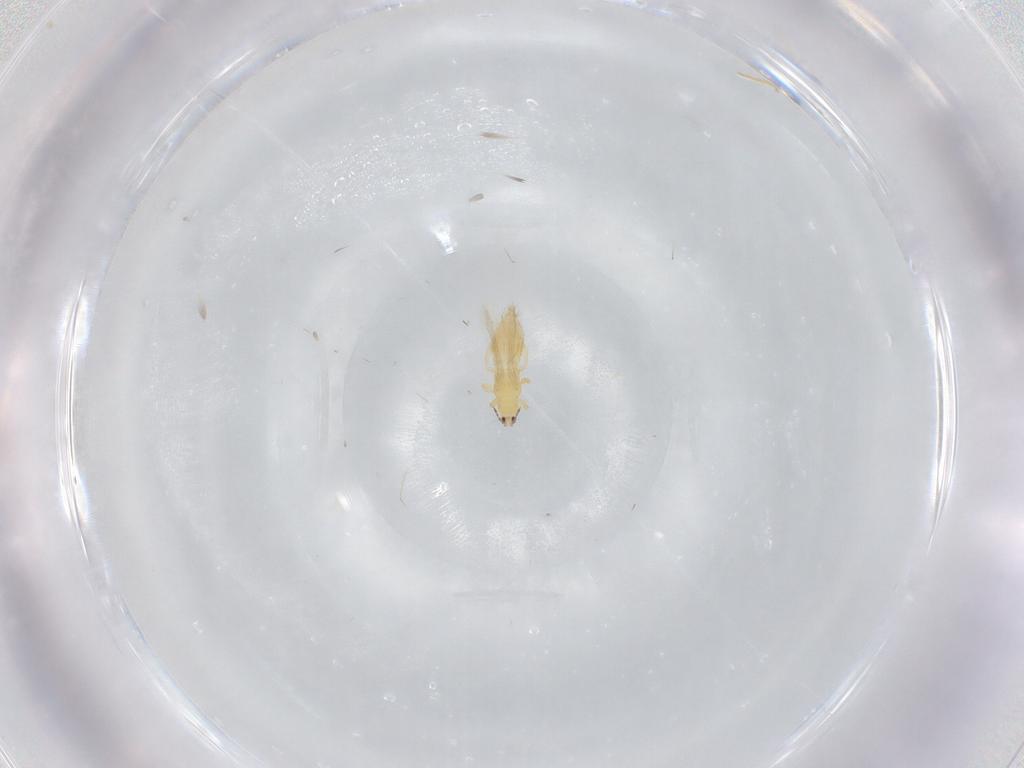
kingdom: Animalia
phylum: Arthropoda
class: Insecta
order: Thysanoptera
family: Thripidae
